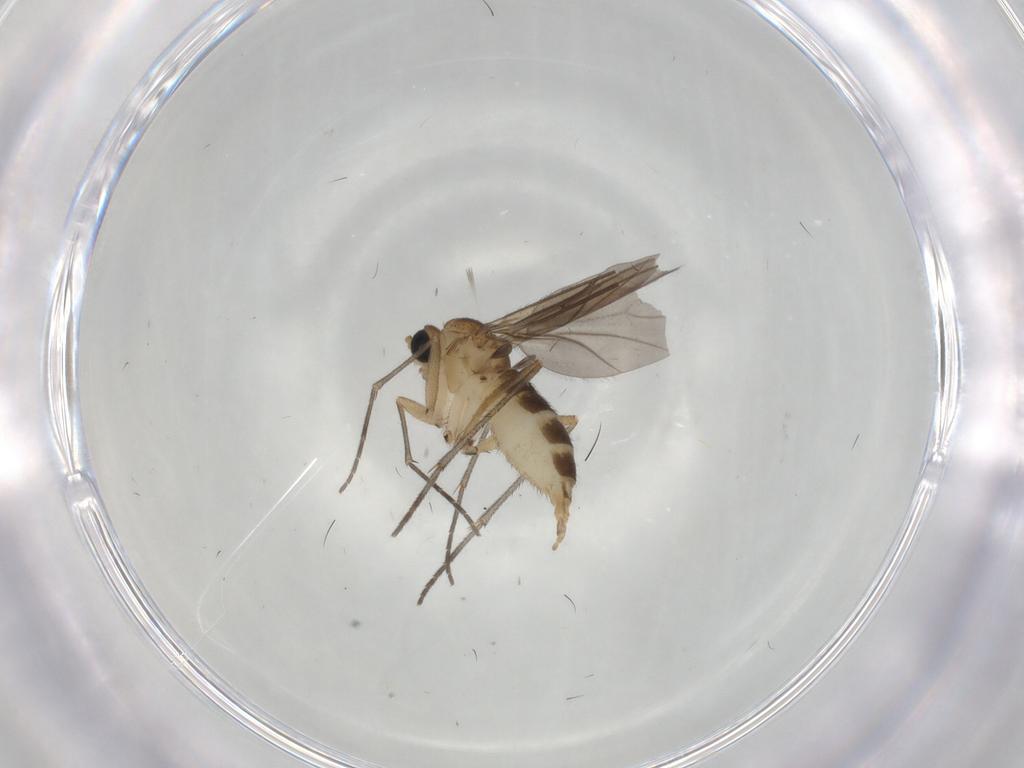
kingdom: Animalia
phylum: Arthropoda
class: Insecta
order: Diptera
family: Sciaridae
